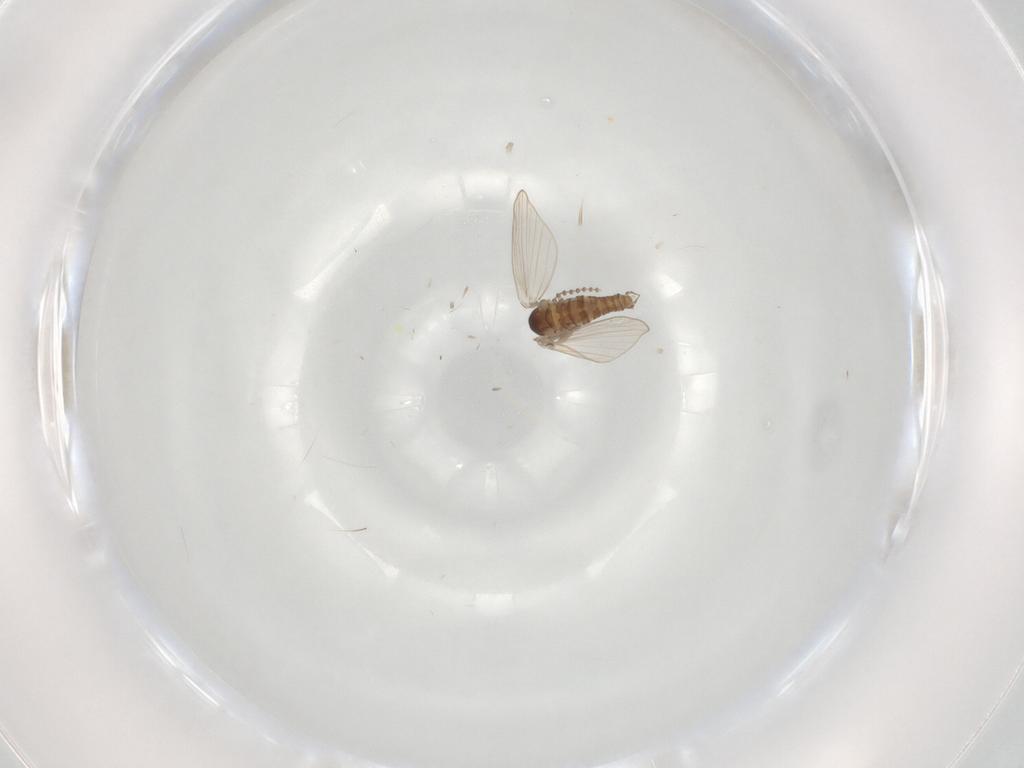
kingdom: Animalia
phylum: Arthropoda
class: Insecta
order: Diptera
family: Psychodidae
